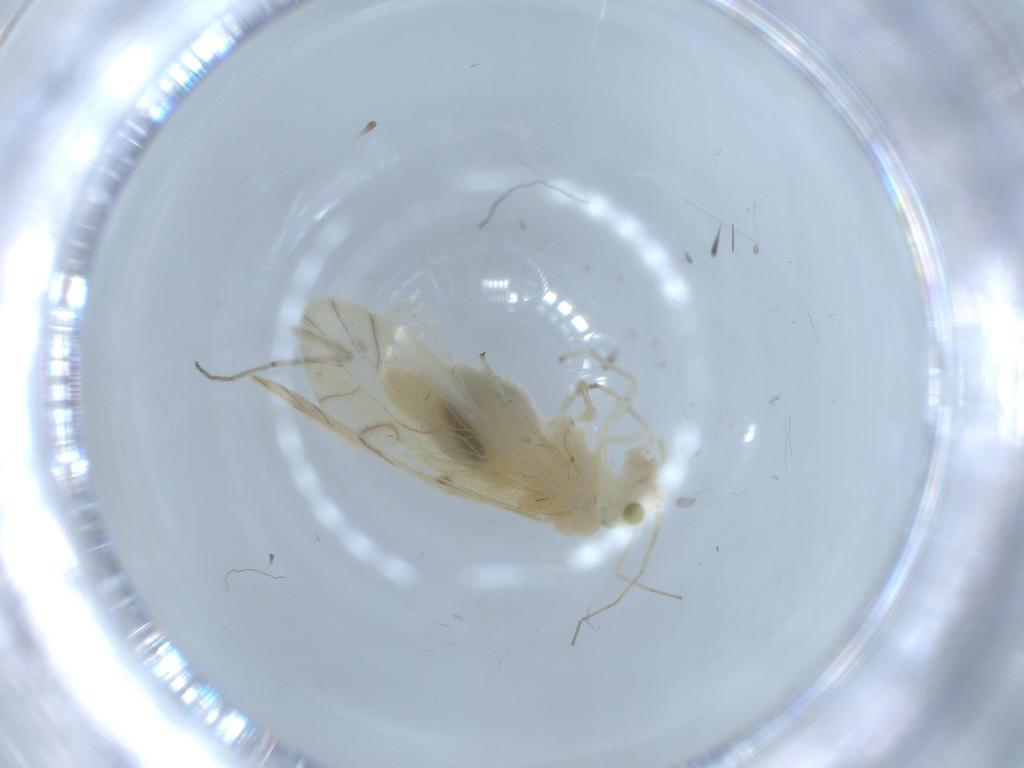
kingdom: Animalia
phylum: Arthropoda
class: Insecta
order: Psocodea
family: Caeciliusidae
